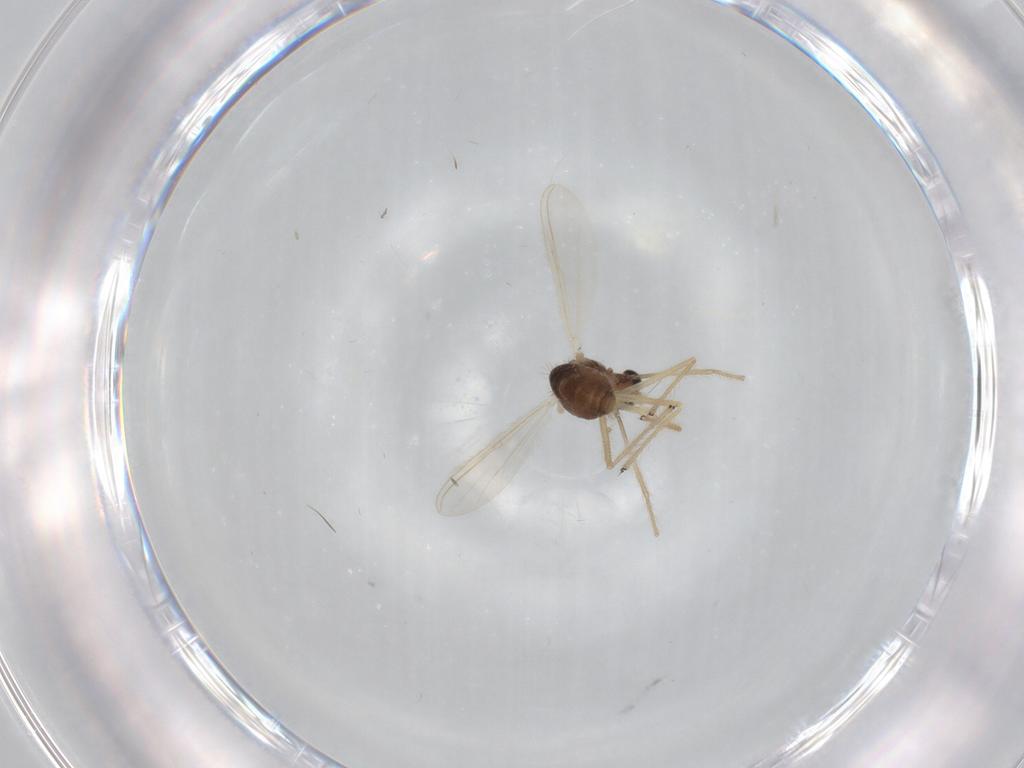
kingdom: Animalia
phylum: Arthropoda
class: Insecta
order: Diptera
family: Chironomidae
